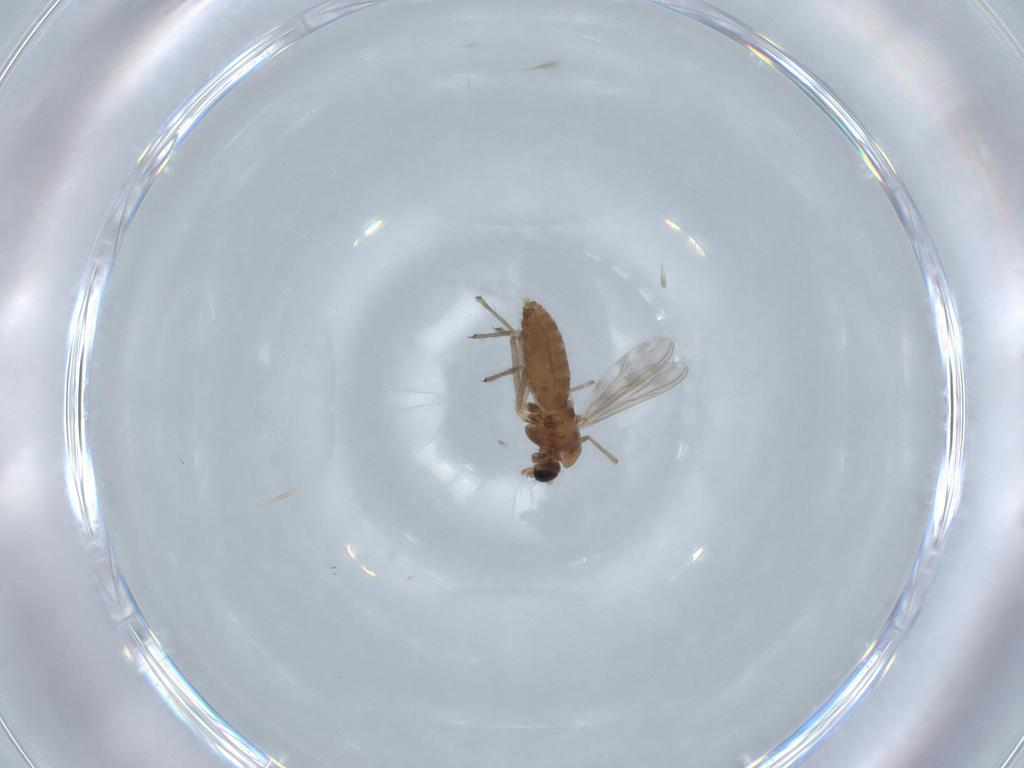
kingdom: Animalia
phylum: Arthropoda
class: Insecta
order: Diptera
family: Chironomidae
